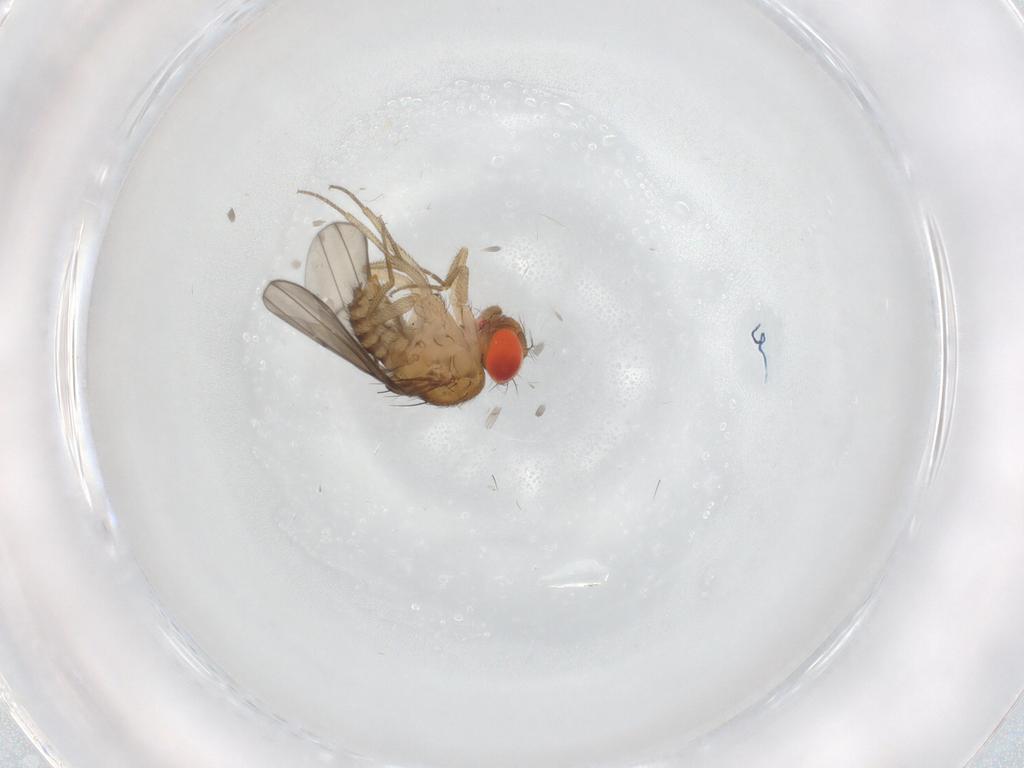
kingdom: Animalia
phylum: Arthropoda
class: Insecta
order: Diptera
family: Drosophilidae
